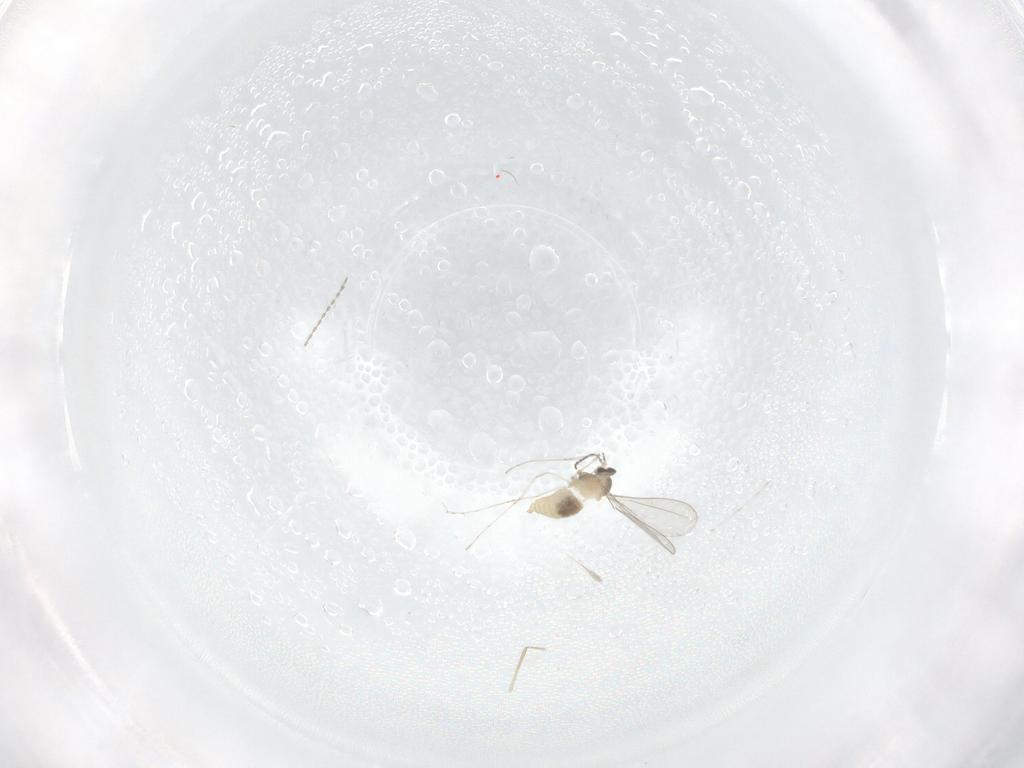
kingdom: Animalia
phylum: Arthropoda
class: Insecta
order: Diptera
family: Cecidomyiidae
